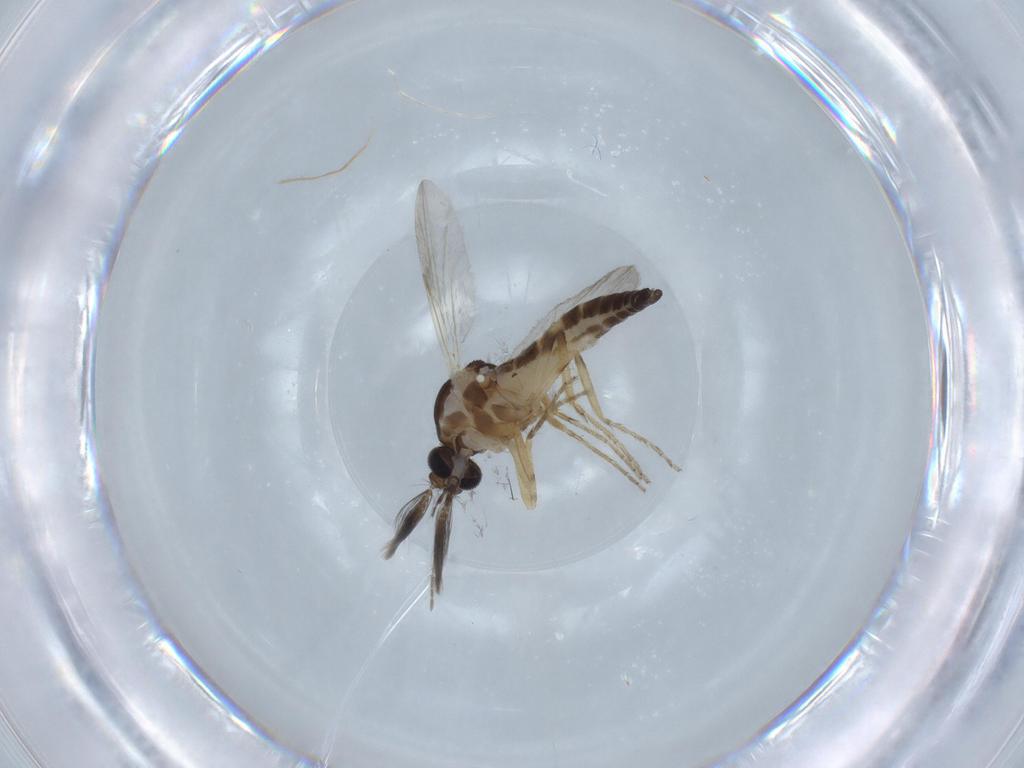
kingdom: Animalia
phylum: Arthropoda
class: Insecta
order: Diptera
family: Ceratopogonidae
